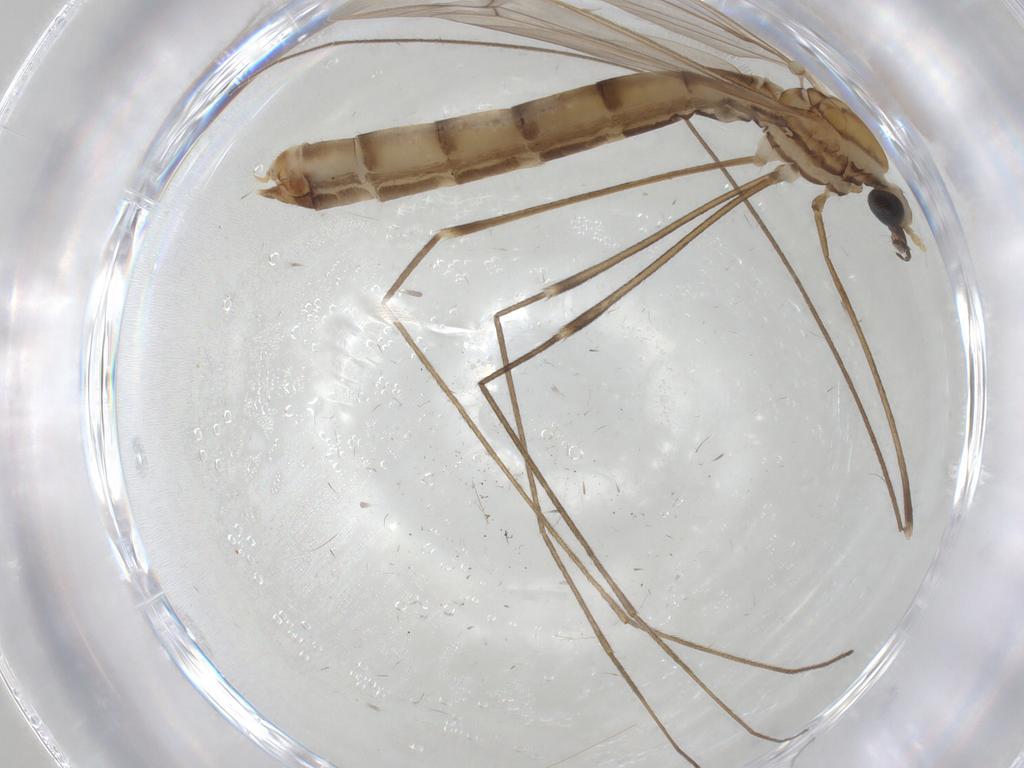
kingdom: Animalia
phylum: Arthropoda
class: Insecta
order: Diptera
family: Limoniidae
